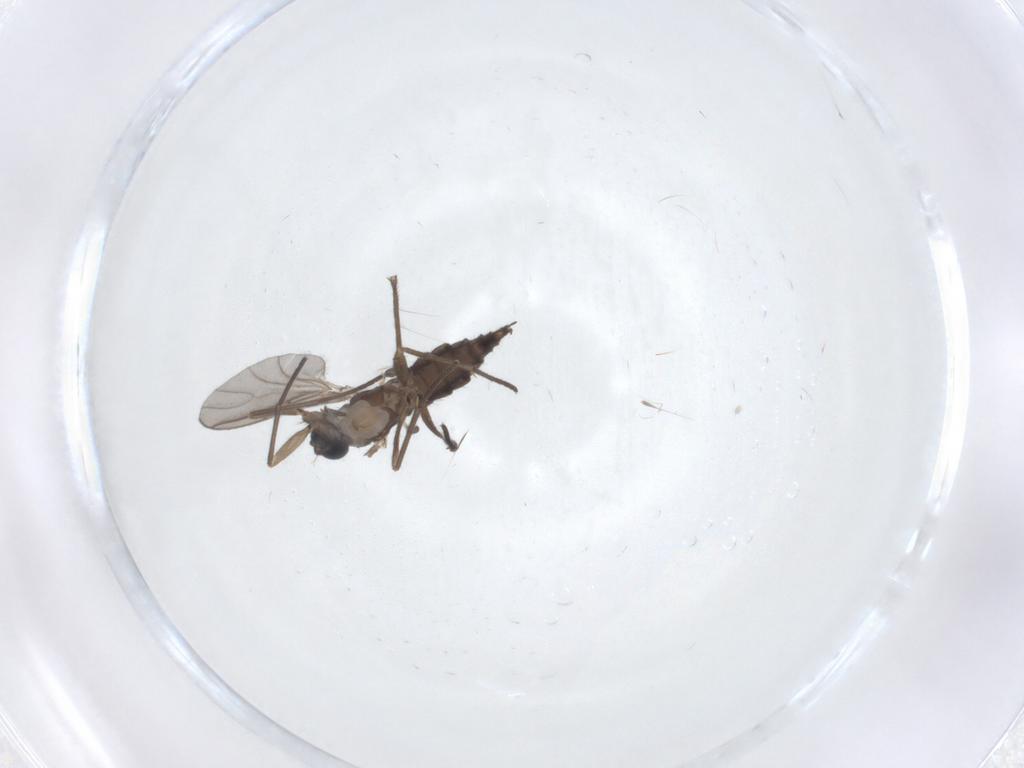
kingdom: Animalia
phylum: Arthropoda
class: Insecta
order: Diptera
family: Sciaridae
